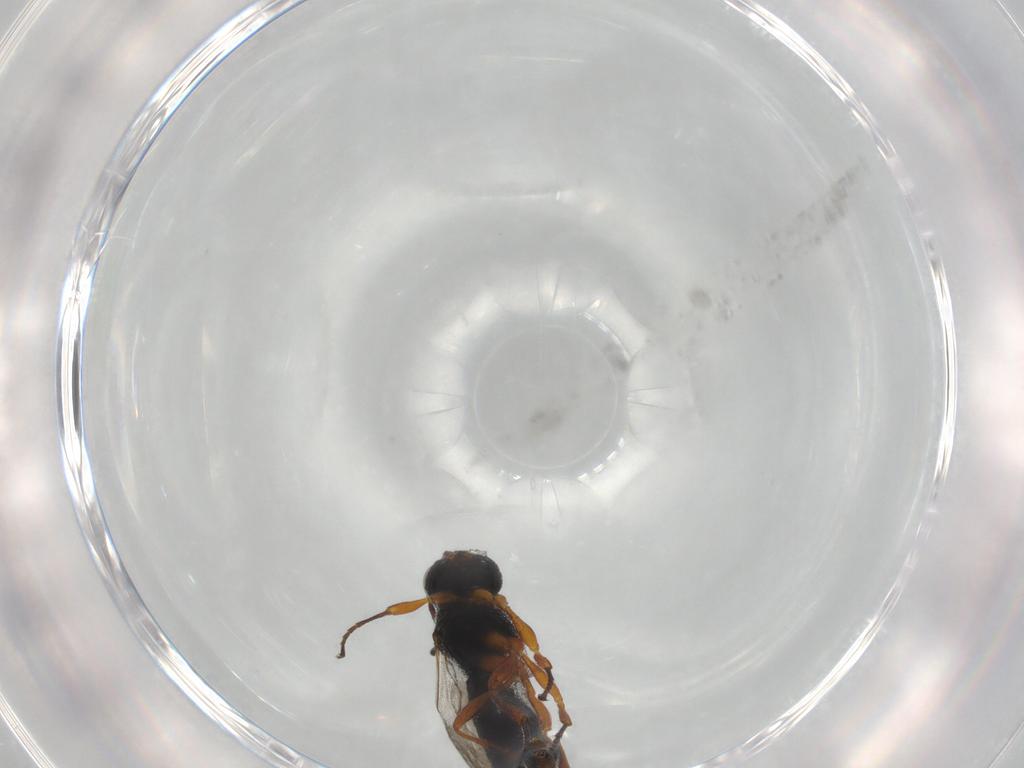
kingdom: Animalia
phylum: Arthropoda
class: Insecta
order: Hymenoptera
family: Trichogrammatidae
